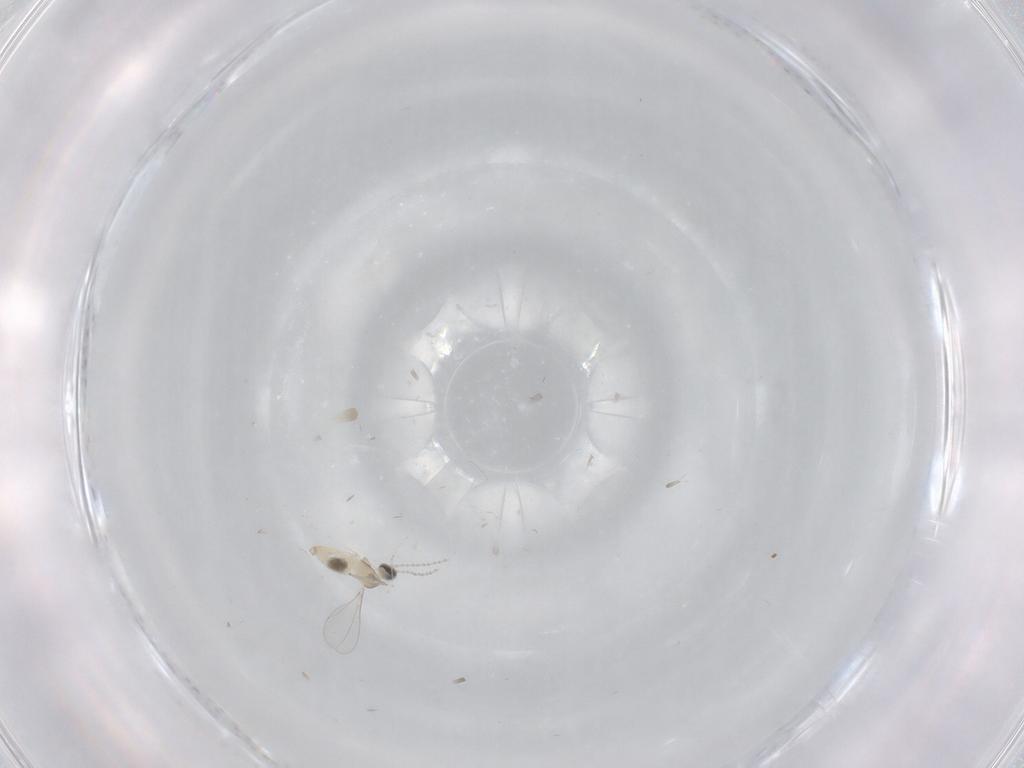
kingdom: Animalia
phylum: Arthropoda
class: Insecta
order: Diptera
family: Cecidomyiidae
